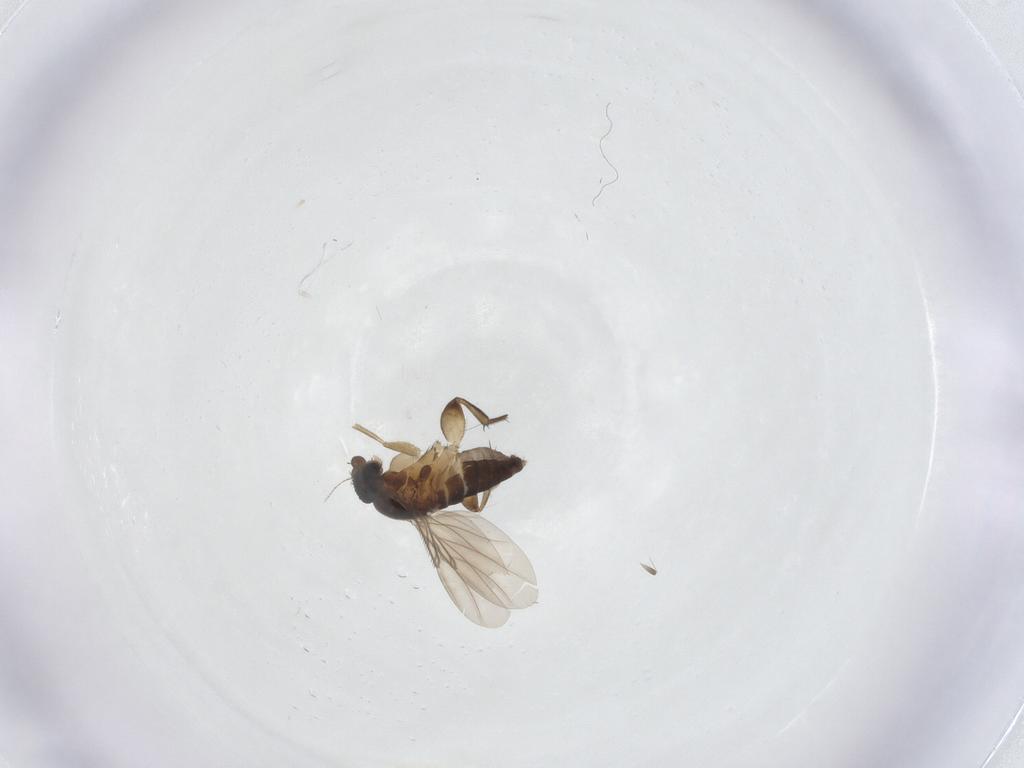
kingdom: Animalia
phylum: Arthropoda
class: Insecta
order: Diptera
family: Phoridae
